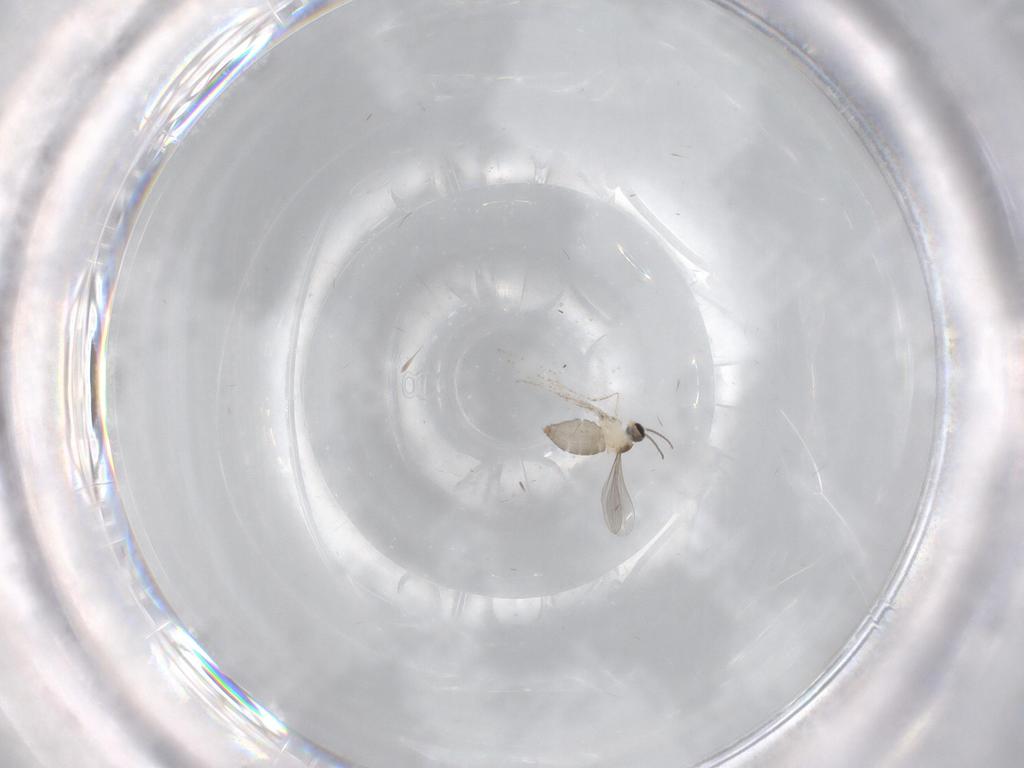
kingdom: Animalia
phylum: Arthropoda
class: Insecta
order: Diptera
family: Cecidomyiidae
